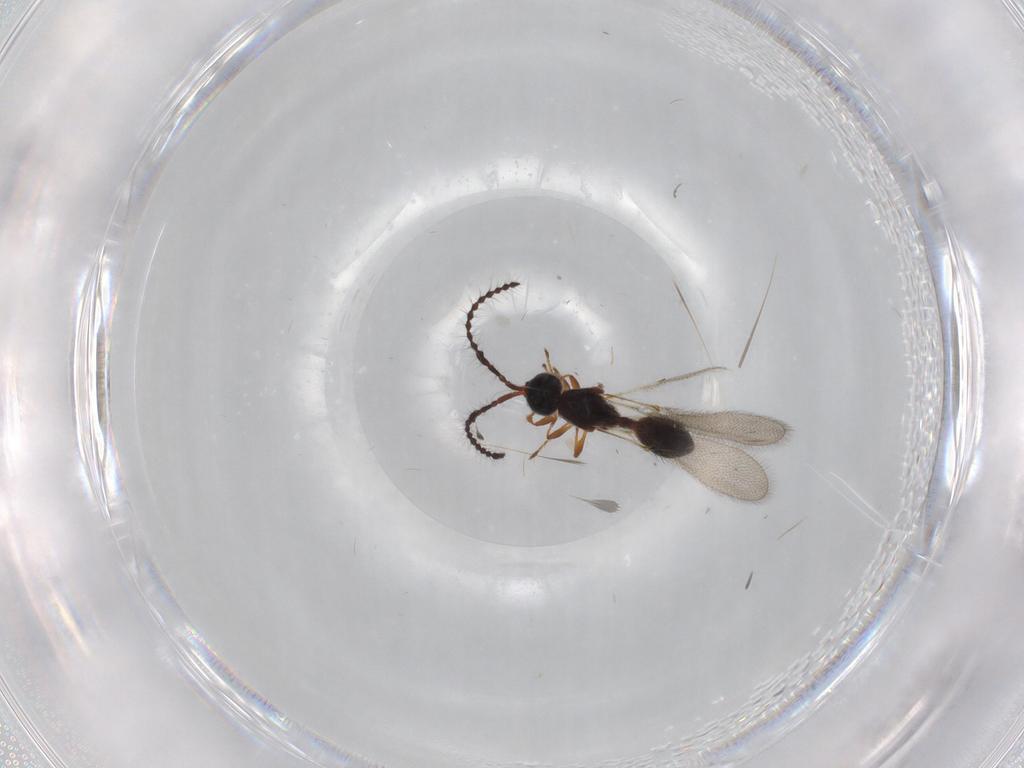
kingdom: Animalia
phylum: Arthropoda
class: Insecta
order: Hymenoptera
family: Diapriidae
